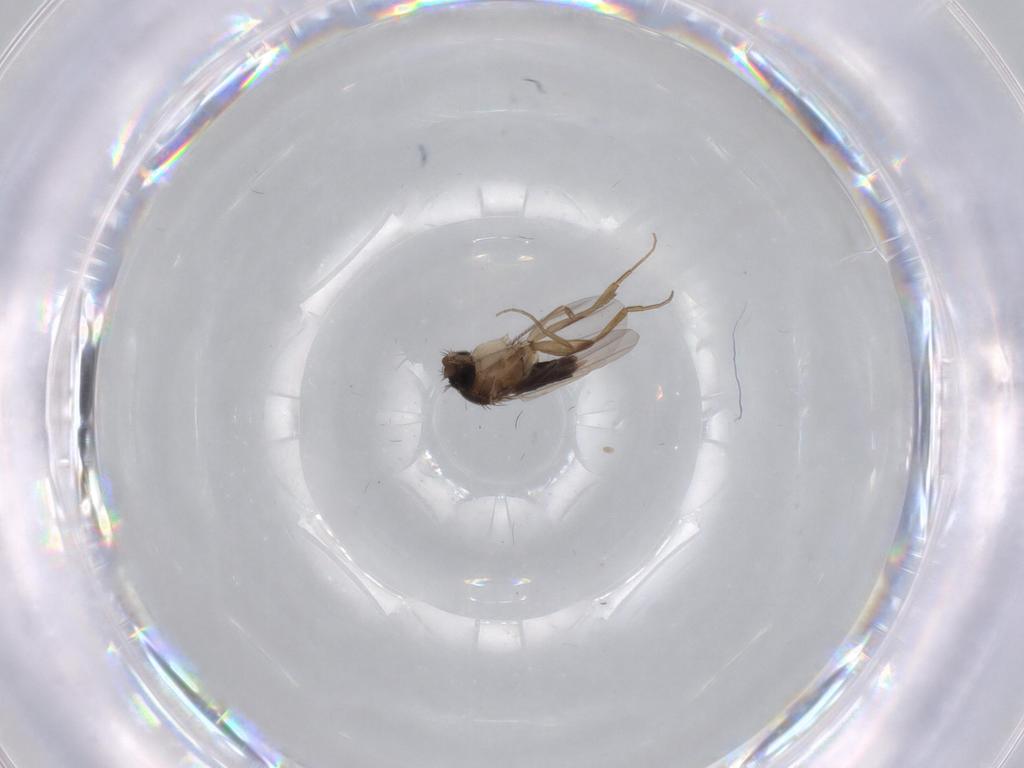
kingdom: Animalia
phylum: Arthropoda
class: Insecta
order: Diptera
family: Phoridae
